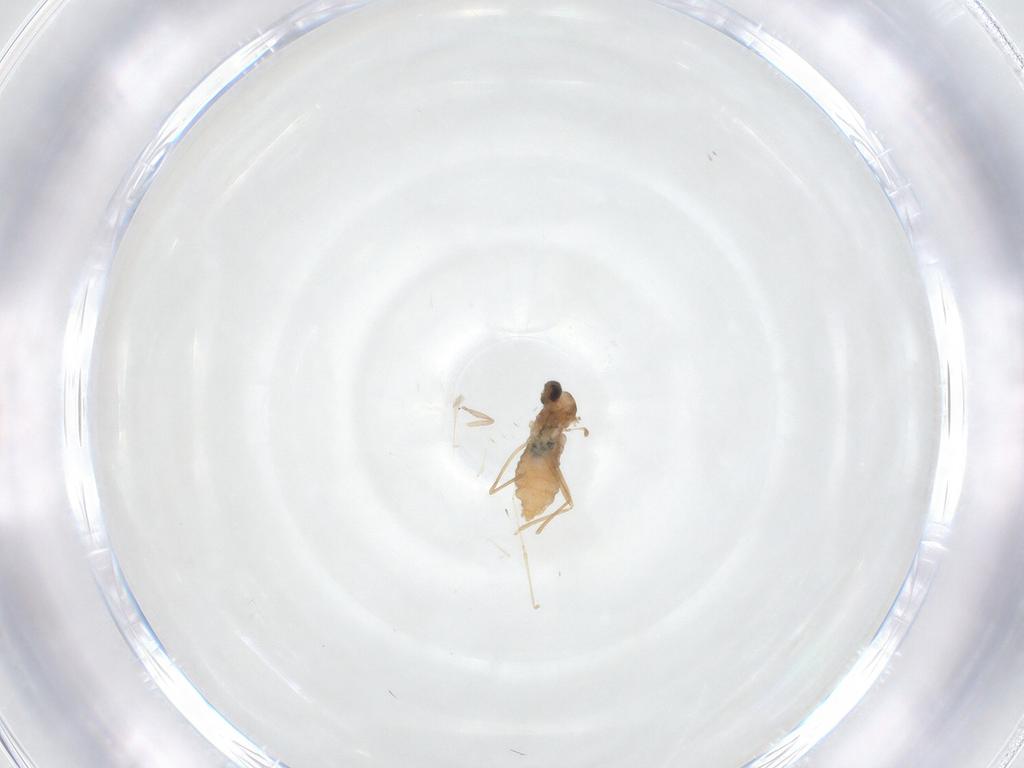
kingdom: Animalia
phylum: Arthropoda
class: Insecta
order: Diptera
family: Cecidomyiidae
